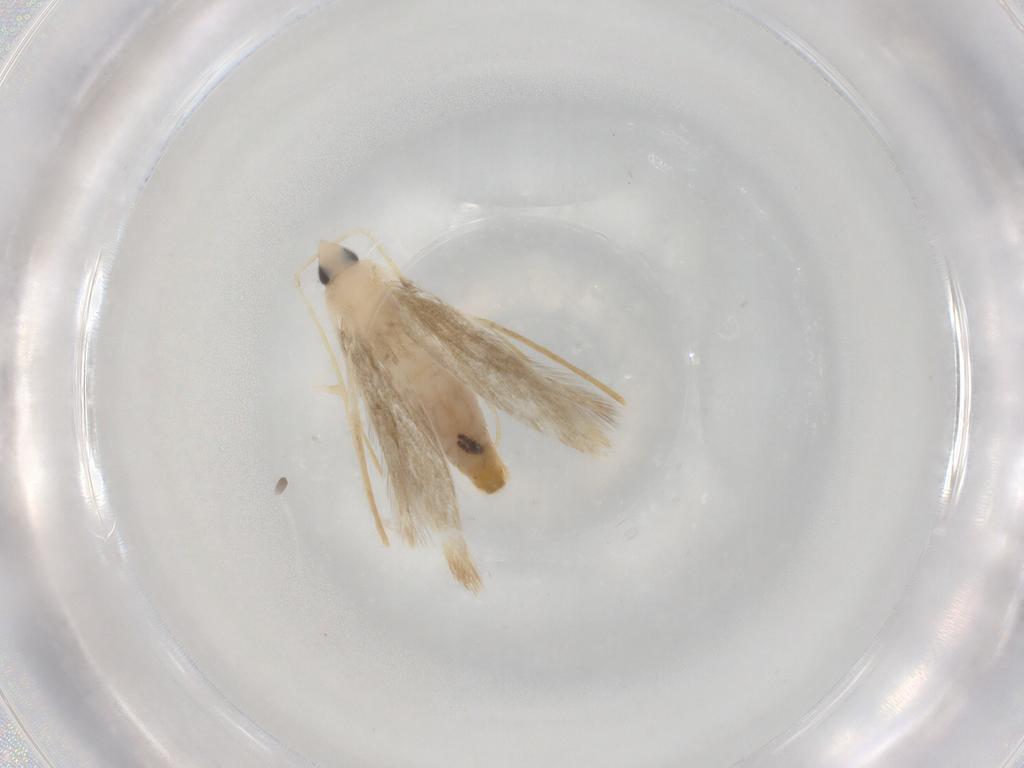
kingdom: Animalia
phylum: Arthropoda
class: Insecta
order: Lepidoptera
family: Tineidae
